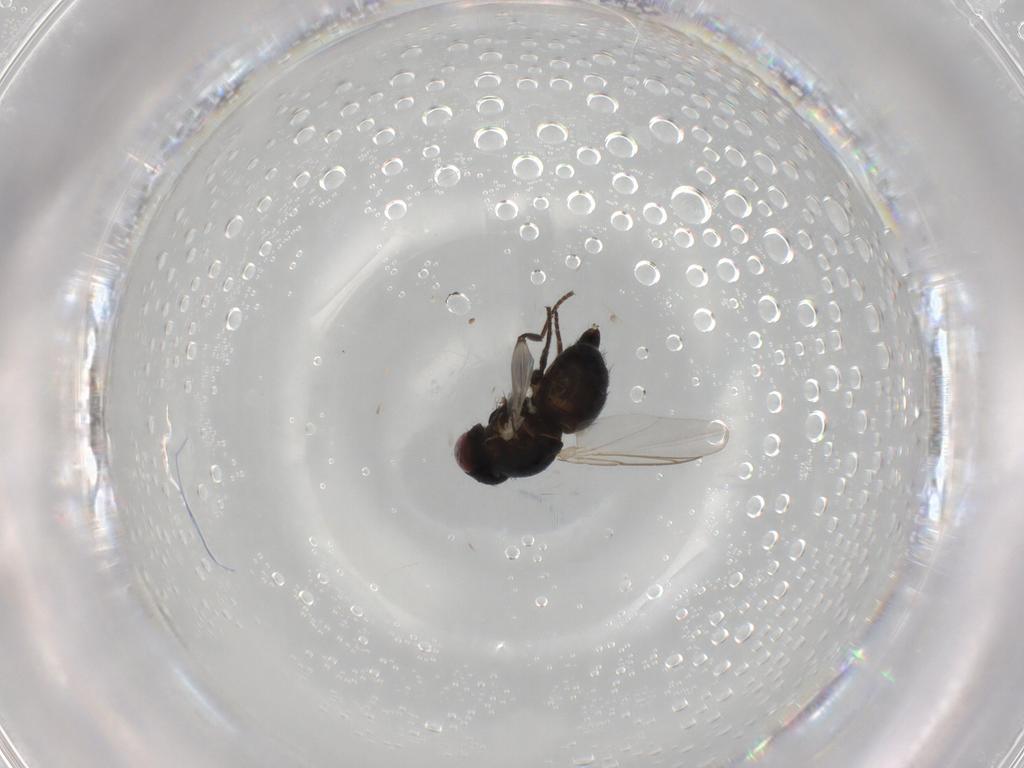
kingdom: Animalia
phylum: Arthropoda
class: Insecta
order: Diptera
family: Agromyzidae
